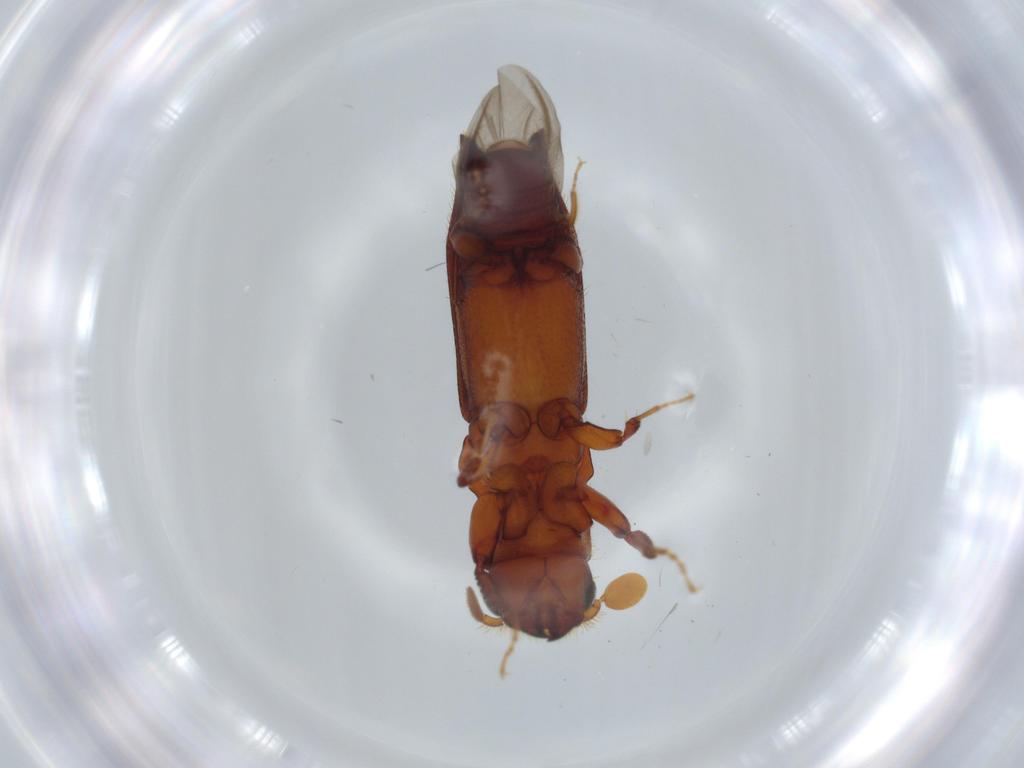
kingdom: Animalia
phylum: Arthropoda
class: Insecta
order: Coleoptera
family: Curculionidae
